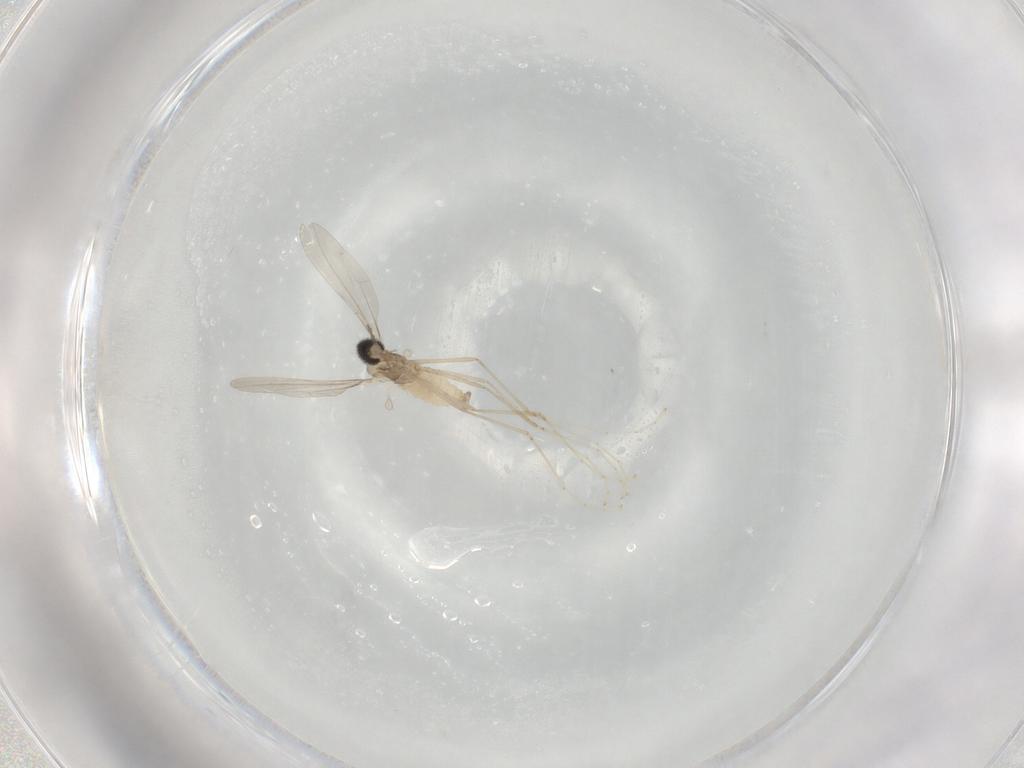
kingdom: Animalia
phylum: Arthropoda
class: Insecta
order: Diptera
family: Cecidomyiidae
